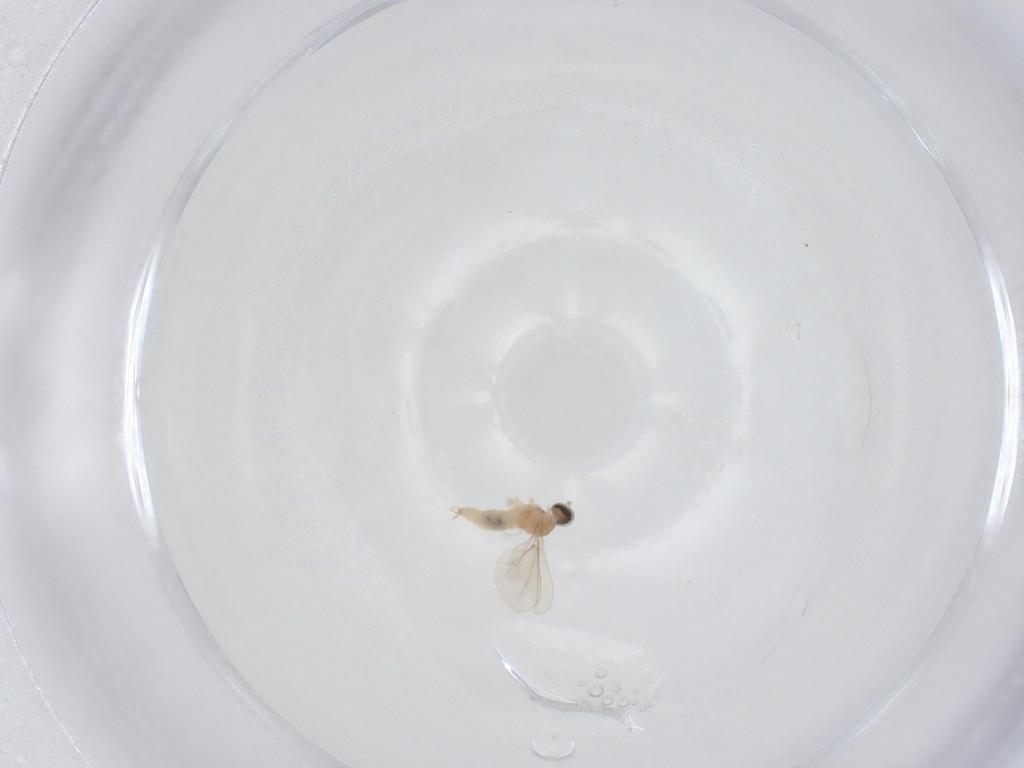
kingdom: Animalia
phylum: Arthropoda
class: Insecta
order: Diptera
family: Cecidomyiidae
